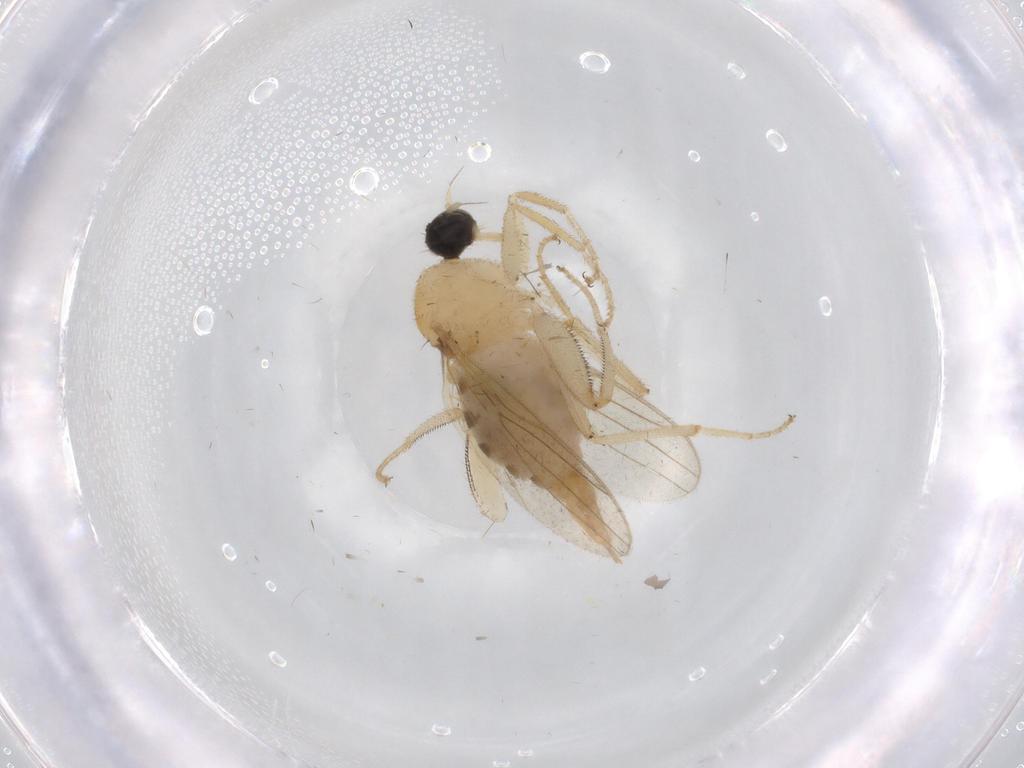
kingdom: Animalia
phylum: Arthropoda
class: Insecta
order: Diptera
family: Hybotidae
